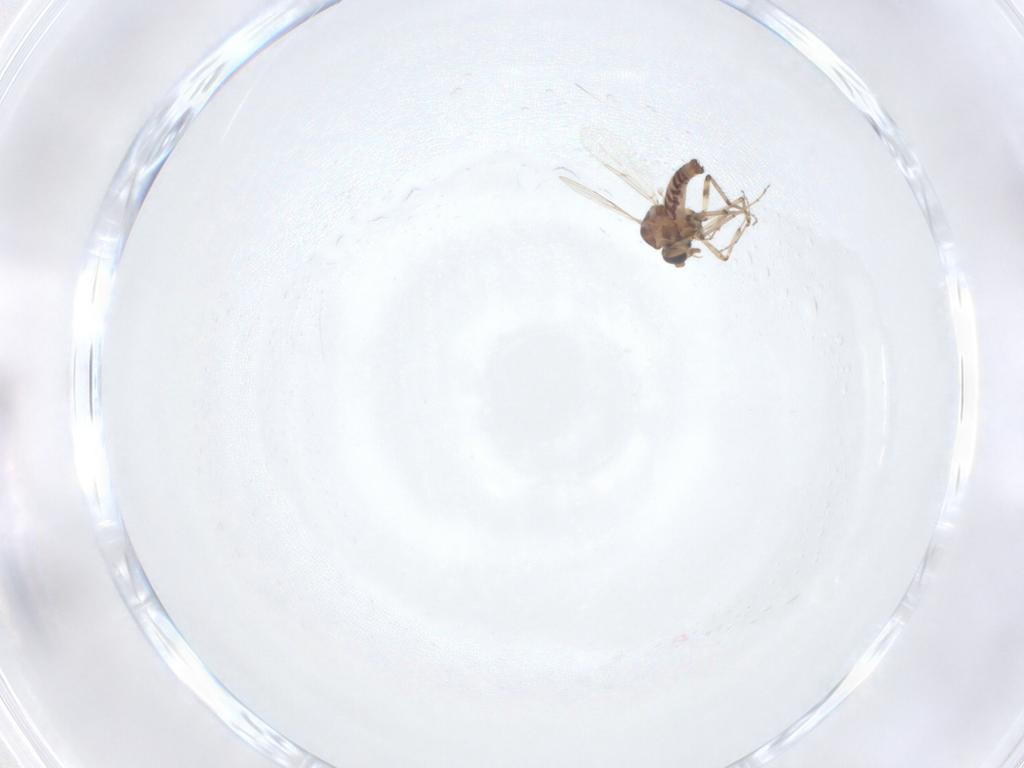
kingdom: Animalia
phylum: Arthropoda
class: Insecta
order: Diptera
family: Ceratopogonidae
